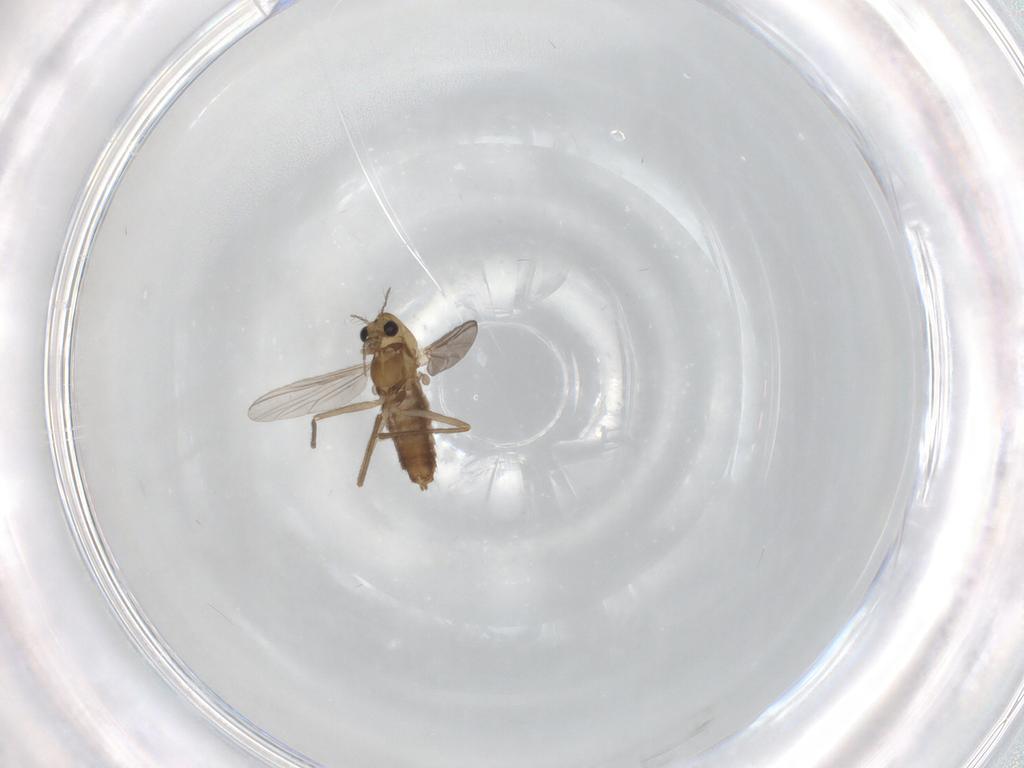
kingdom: Animalia
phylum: Arthropoda
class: Insecta
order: Diptera
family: Chironomidae
